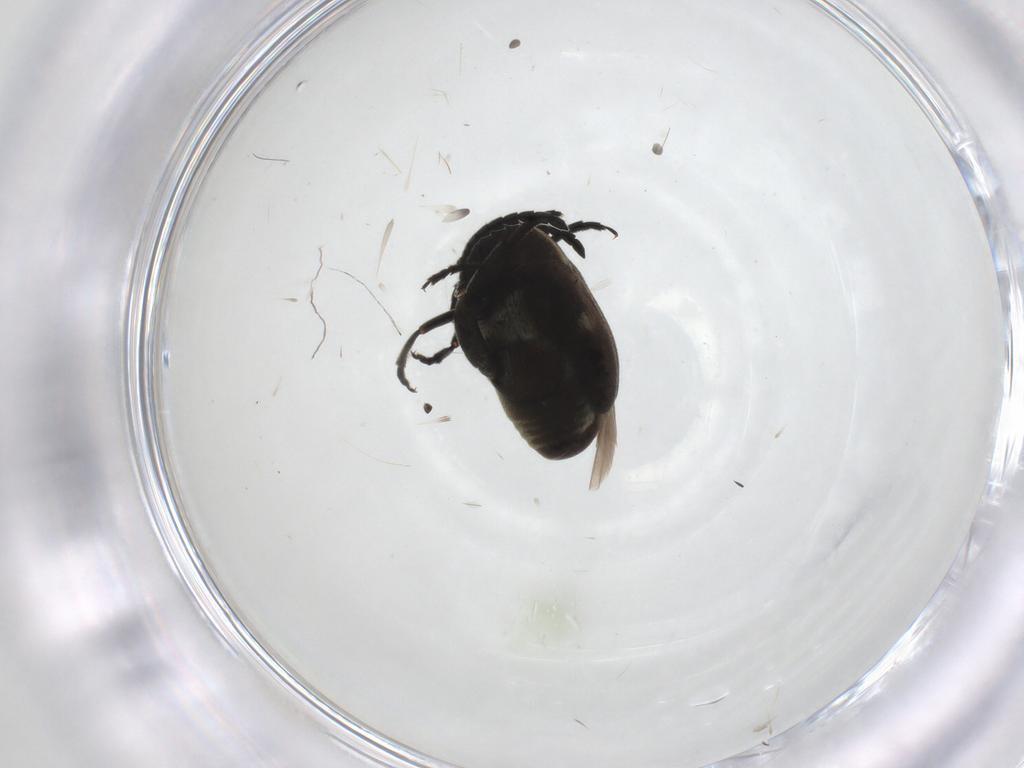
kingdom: Animalia
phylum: Arthropoda
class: Insecta
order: Coleoptera
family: Chrysomelidae
